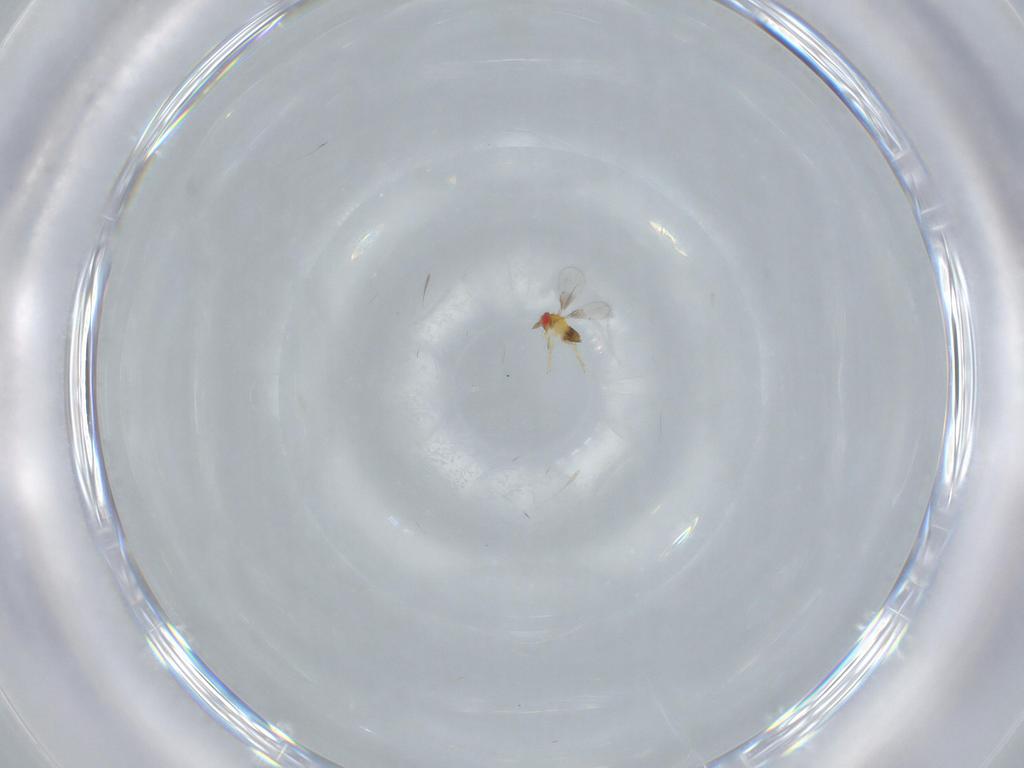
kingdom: Animalia
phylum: Arthropoda
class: Insecta
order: Hymenoptera
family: Trichogrammatidae
